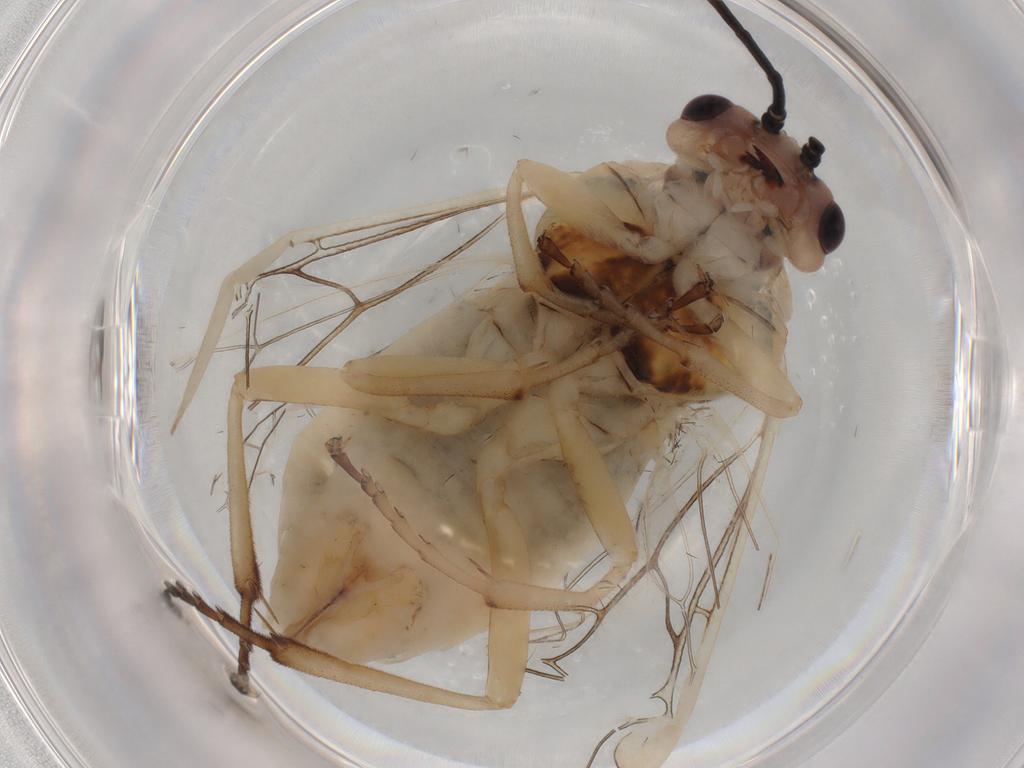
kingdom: Animalia
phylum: Arthropoda
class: Insecta
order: Hymenoptera
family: Ichneumonidae
